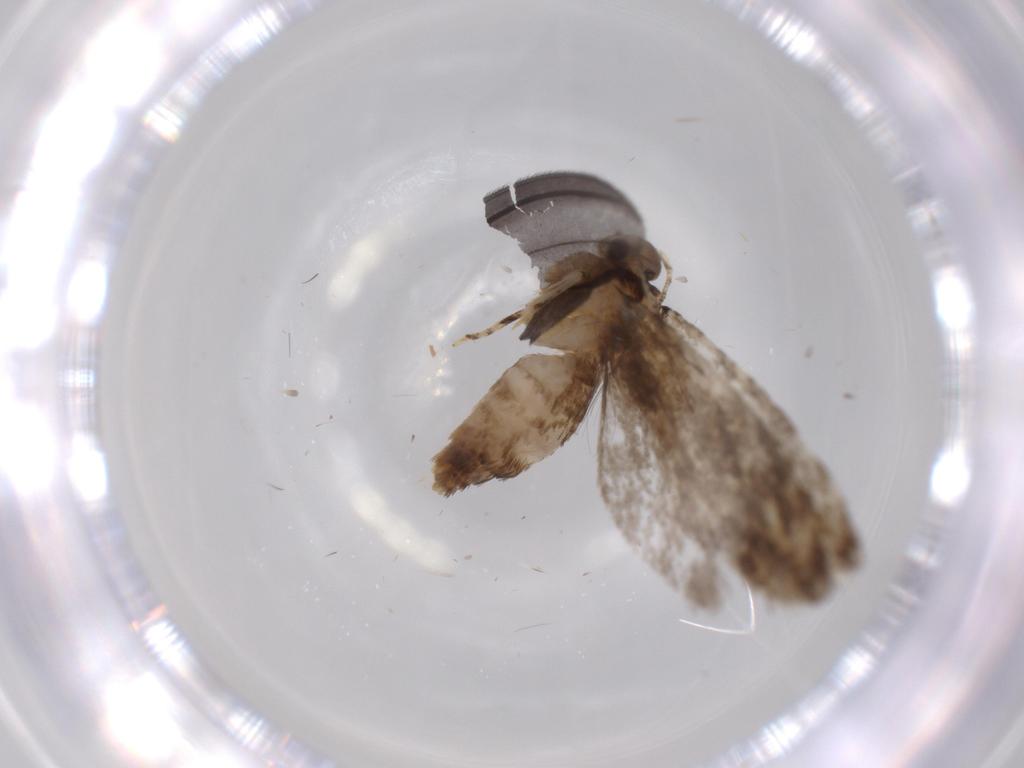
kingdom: Animalia
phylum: Arthropoda
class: Insecta
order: Lepidoptera
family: Tineidae
